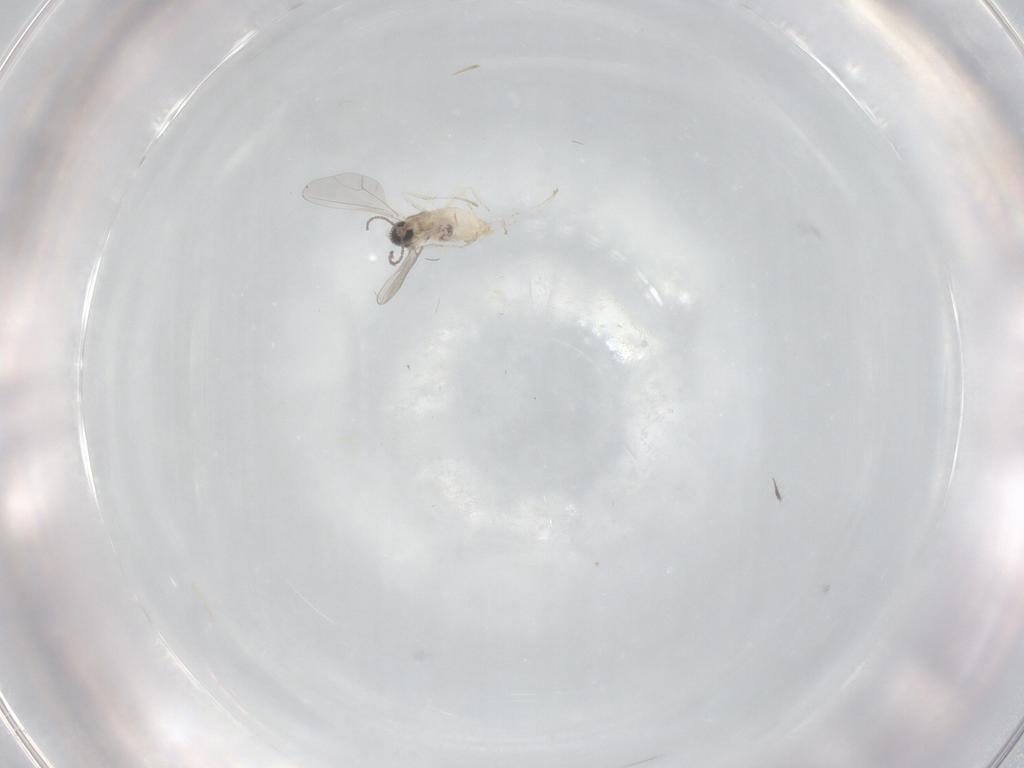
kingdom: Animalia
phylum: Arthropoda
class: Insecta
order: Diptera
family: Cecidomyiidae
